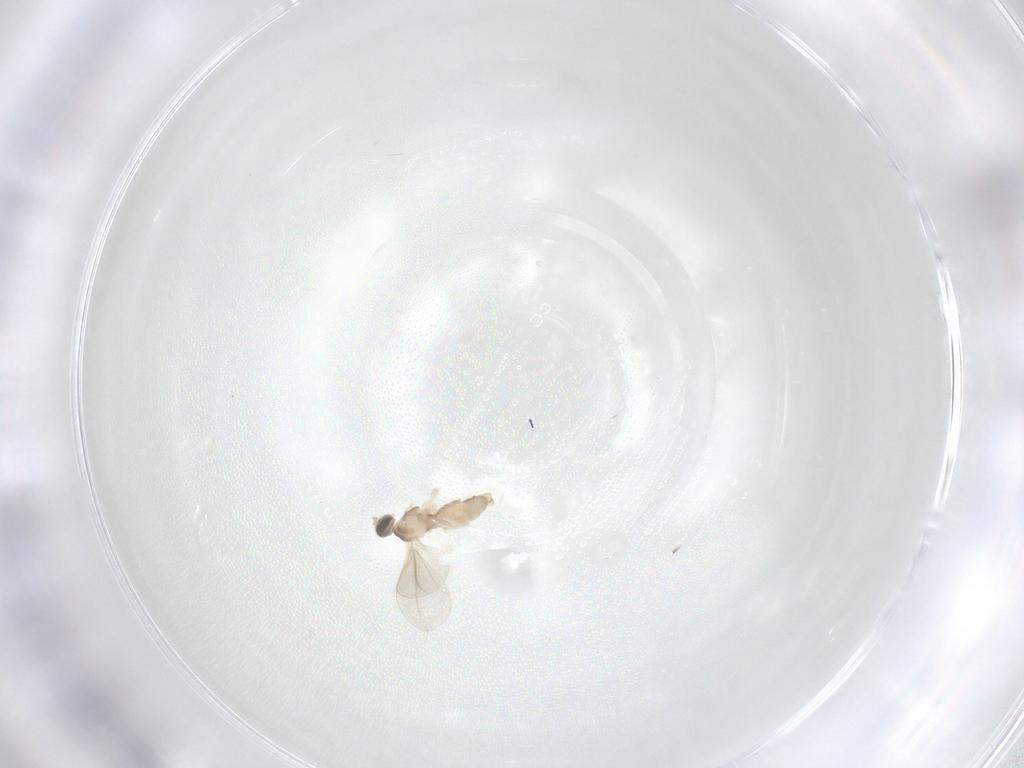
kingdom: Animalia
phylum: Arthropoda
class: Insecta
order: Diptera
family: Cecidomyiidae
